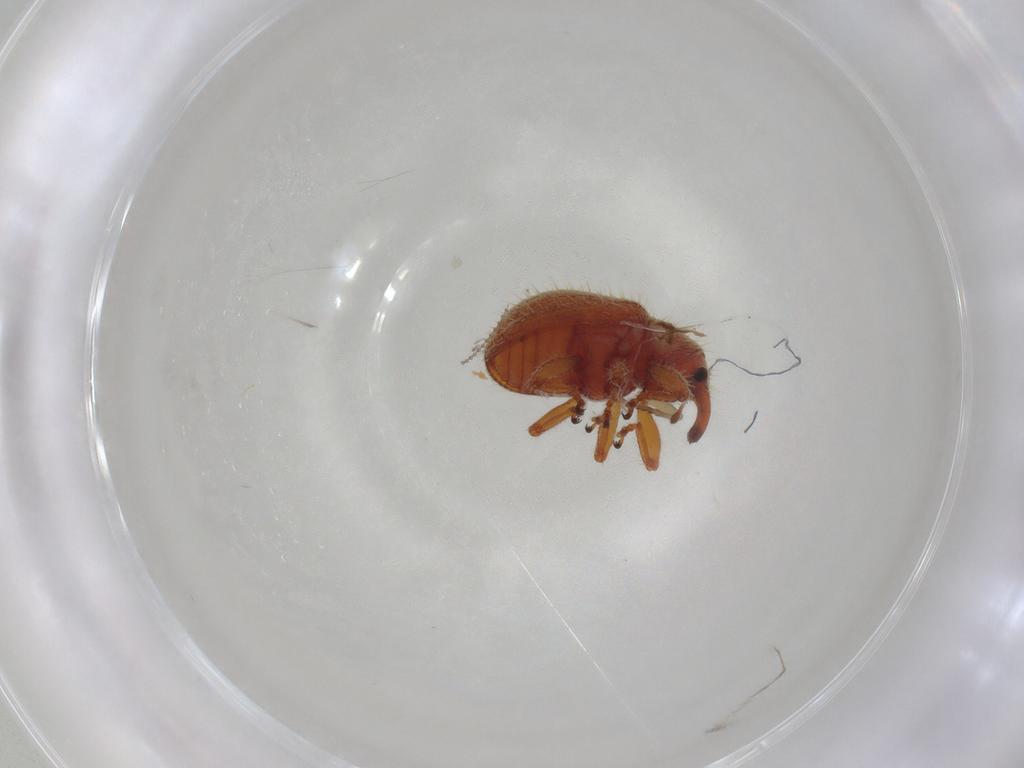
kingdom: Animalia
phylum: Arthropoda
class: Insecta
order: Coleoptera
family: Curculionidae
